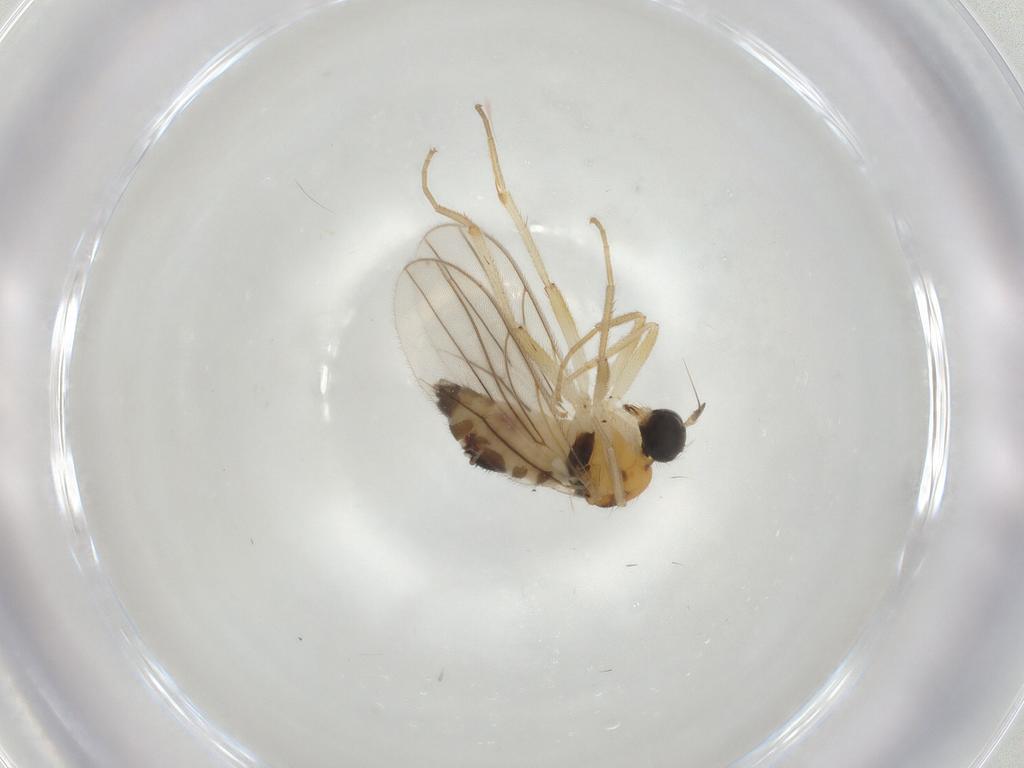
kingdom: Animalia
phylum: Arthropoda
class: Insecta
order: Diptera
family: Hybotidae
